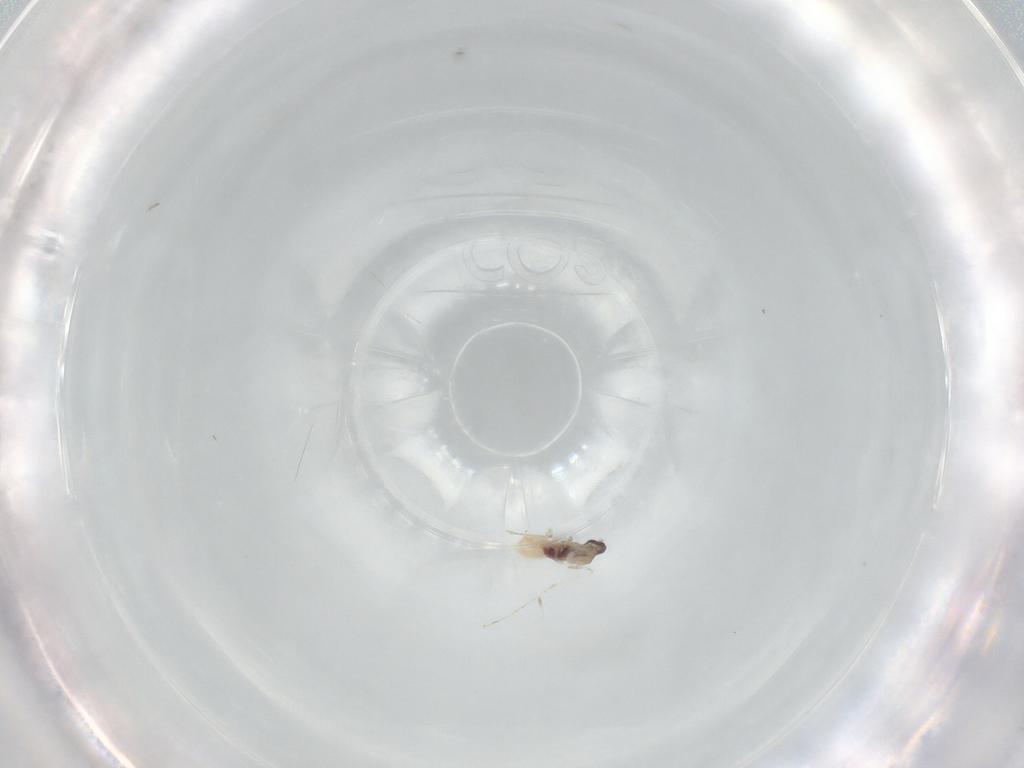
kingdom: Animalia
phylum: Arthropoda
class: Insecta
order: Diptera
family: Cecidomyiidae
